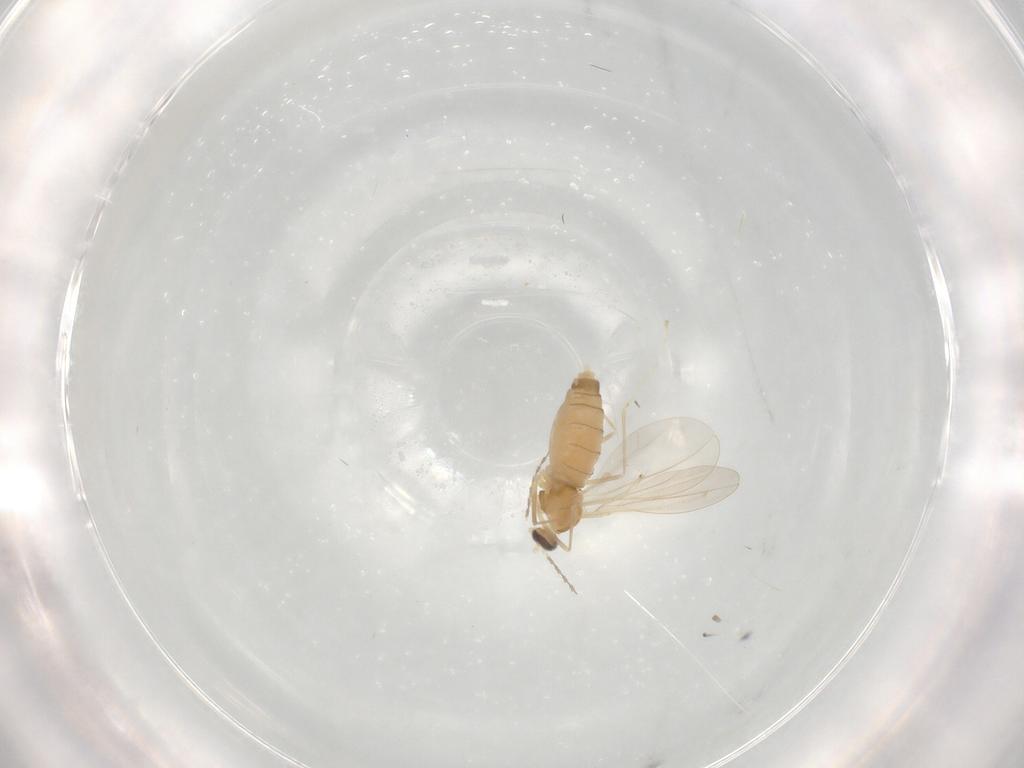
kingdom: Animalia
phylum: Arthropoda
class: Insecta
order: Diptera
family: Cecidomyiidae
